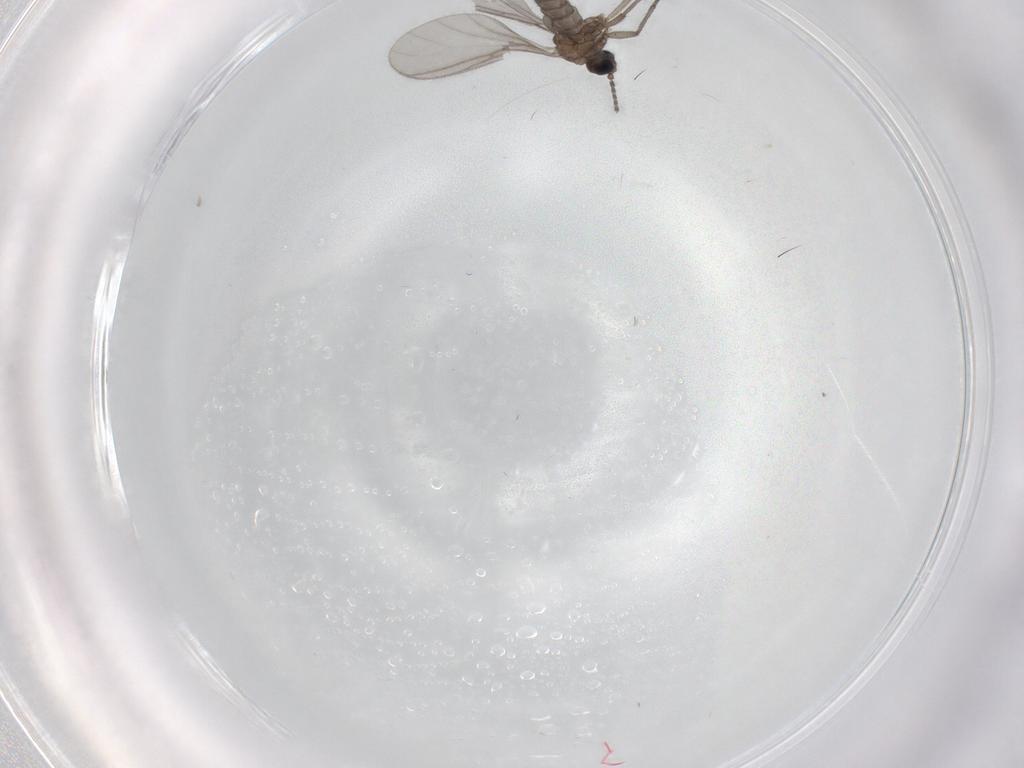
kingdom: Animalia
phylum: Arthropoda
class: Insecta
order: Diptera
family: Sciaridae
